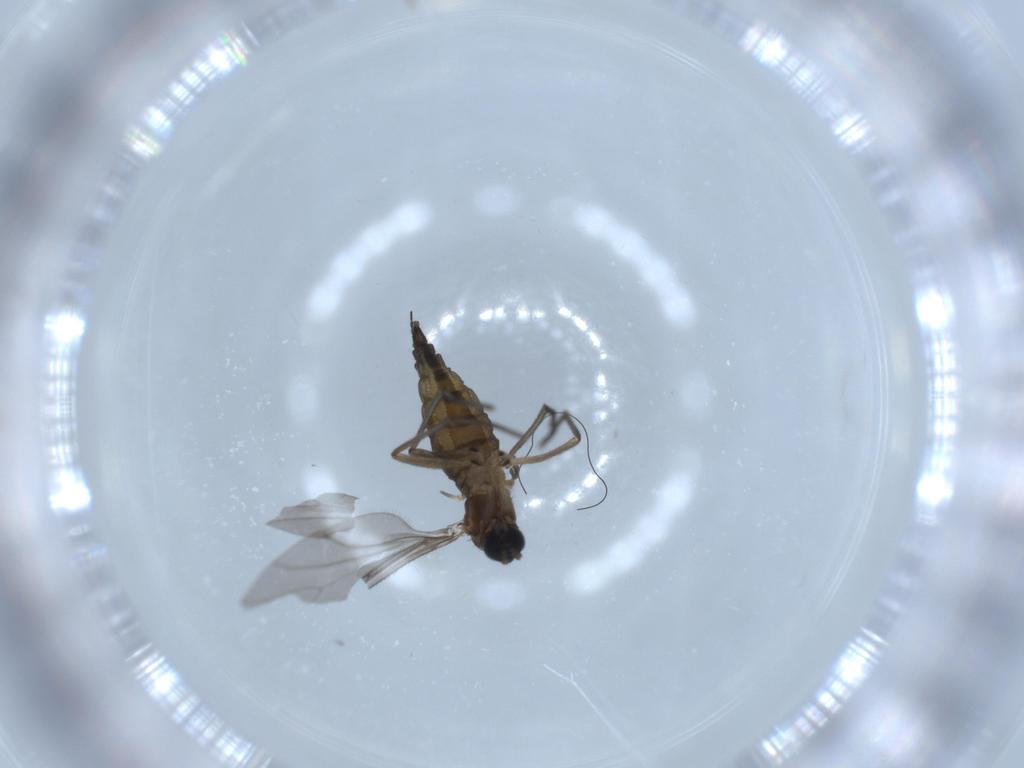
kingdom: Animalia
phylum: Arthropoda
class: Insecta
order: Diptera
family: Sciaridae
